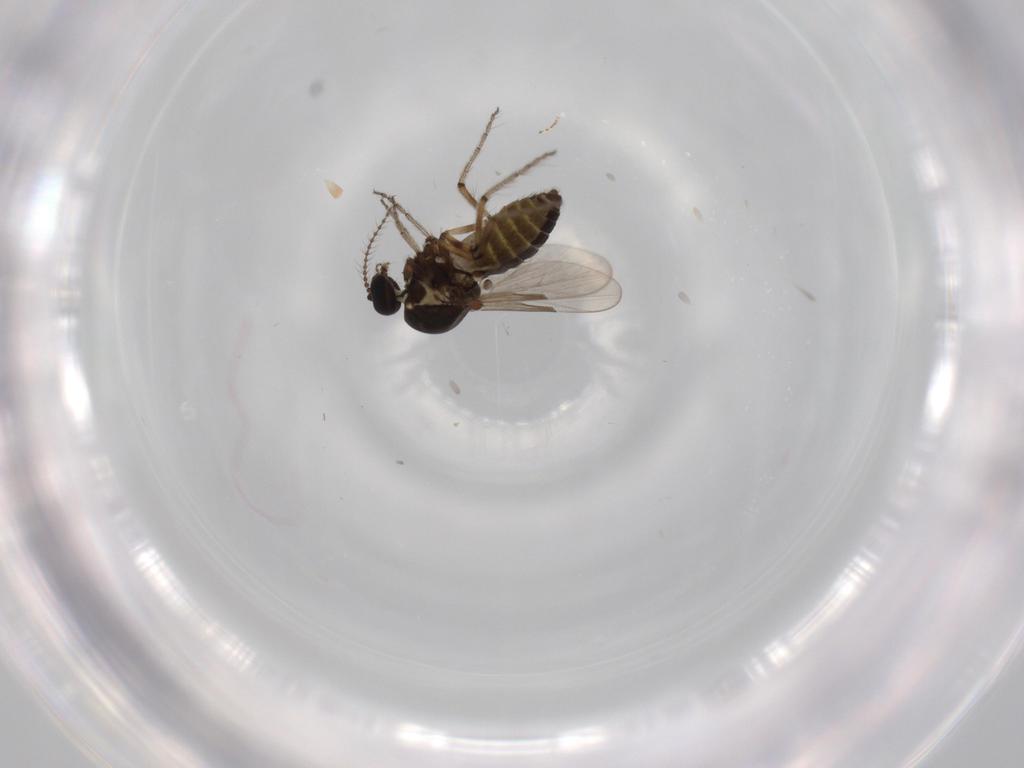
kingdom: Animalia
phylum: Arthropoda
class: Insecta
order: Diptera
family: Ceratopogonidae
